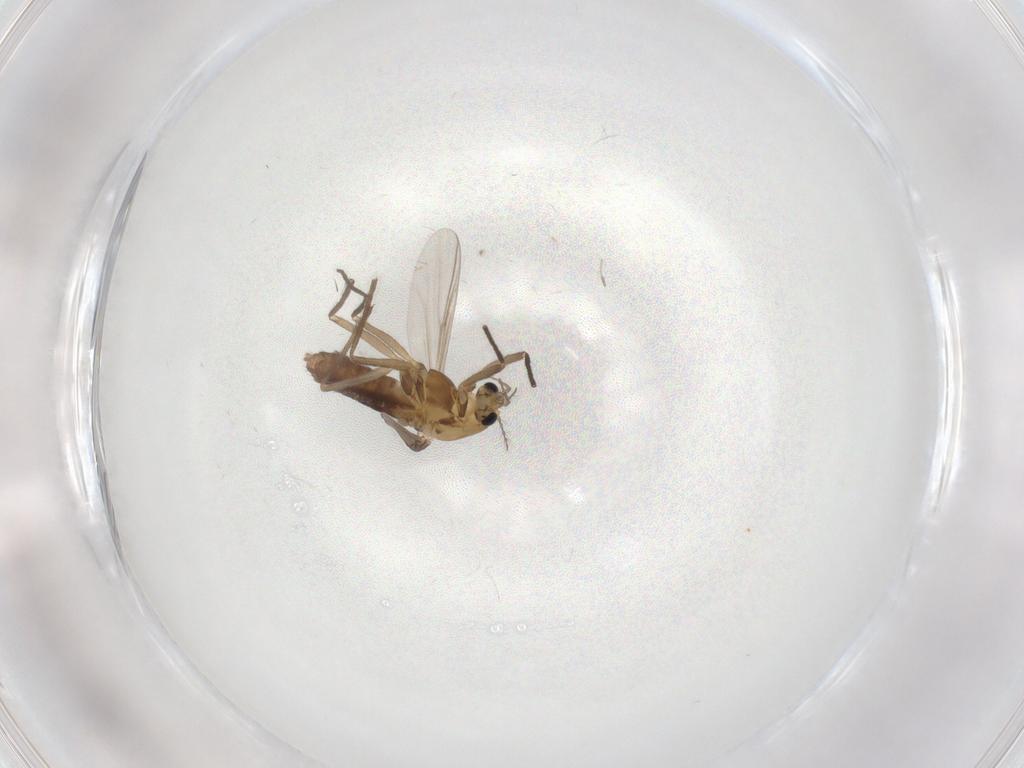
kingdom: Animalia
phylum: Arthropoda
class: Insecta
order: Diptera
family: Chironomidae
